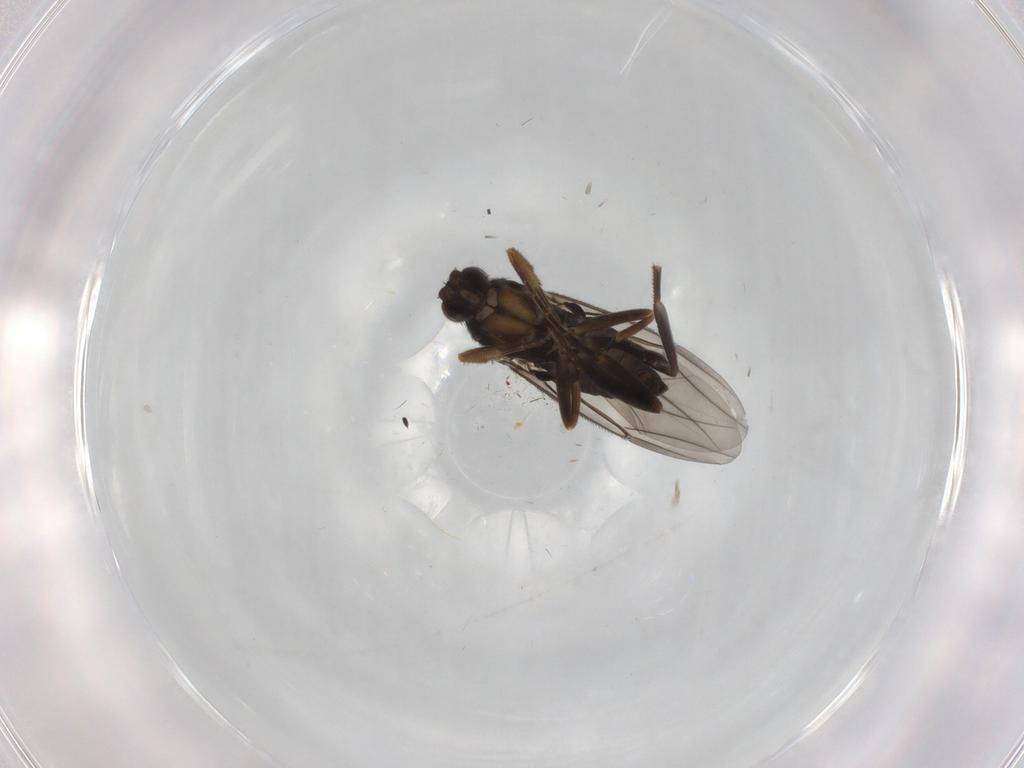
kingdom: Animalia
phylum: Arthropoda
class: Insecta
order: Diptera
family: Phoridae
